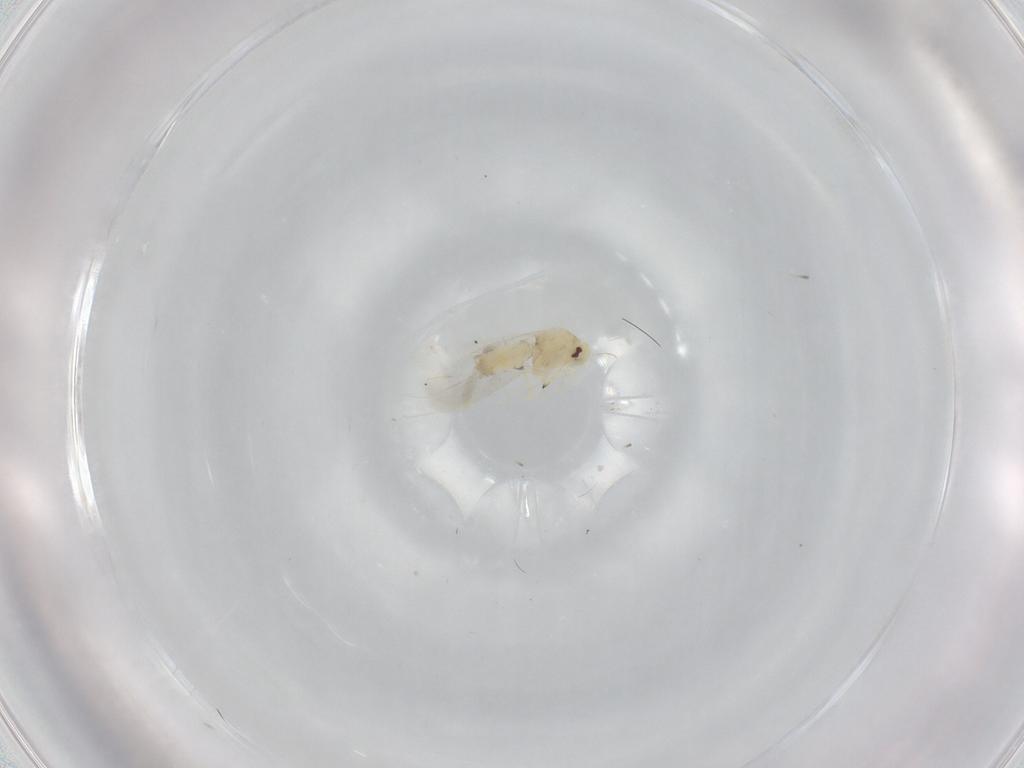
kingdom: Animalia
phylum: Arthropoda
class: Insecta
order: Hemiptera
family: Aleyrodidae
